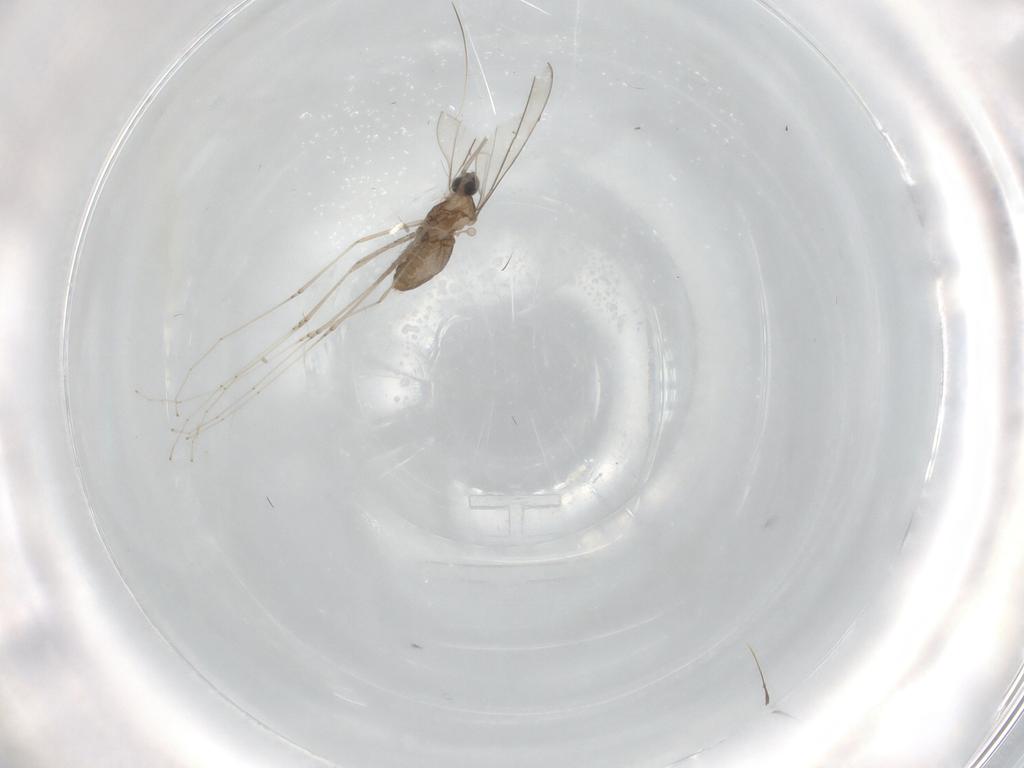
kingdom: Animalia
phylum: Arthropoda
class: Insecta
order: Diptera
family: Cecidomyiidae
